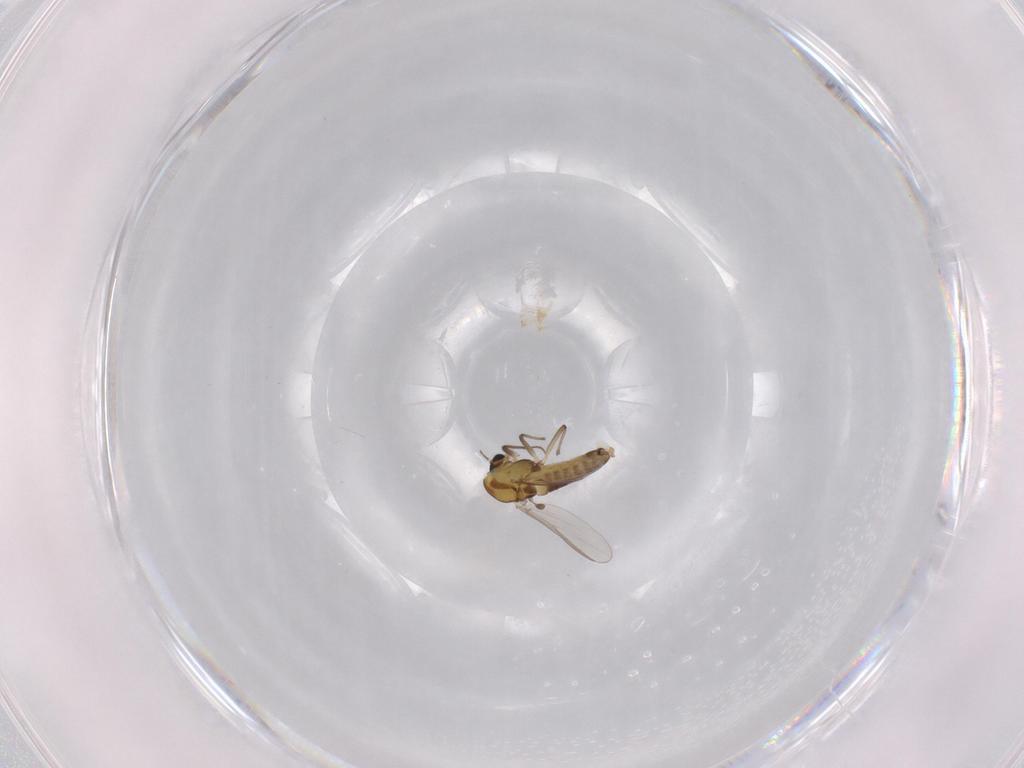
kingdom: Animalia
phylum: Arthropoda
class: Insecta
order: Diptera
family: Chironomidae
